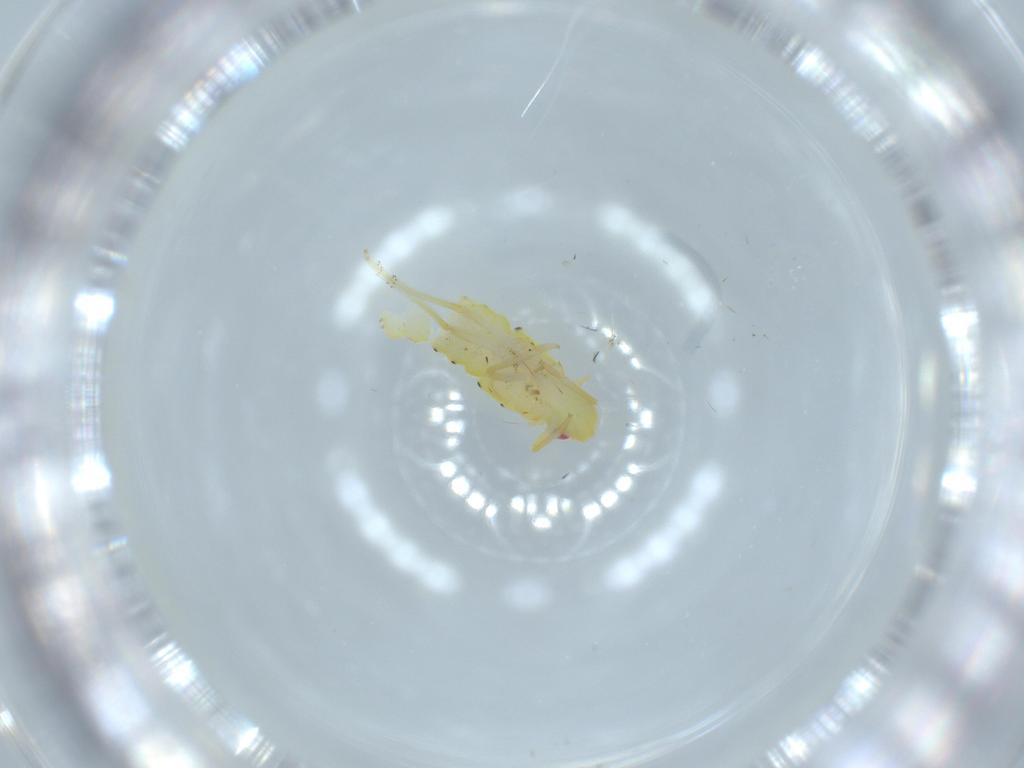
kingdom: Animalia
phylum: Arthropoda
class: Insecta
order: Hemiptera
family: Tropiduchidae
